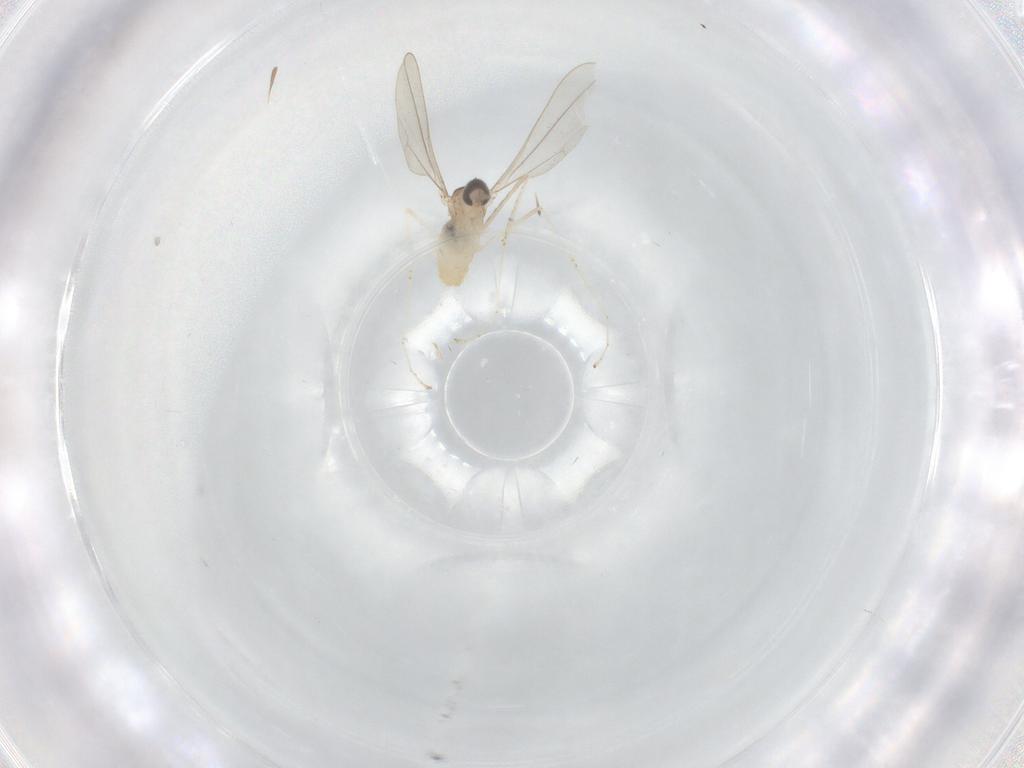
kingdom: Animalia
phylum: Arthropoda
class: Insecta
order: Diptera
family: Cecidomyiidae
